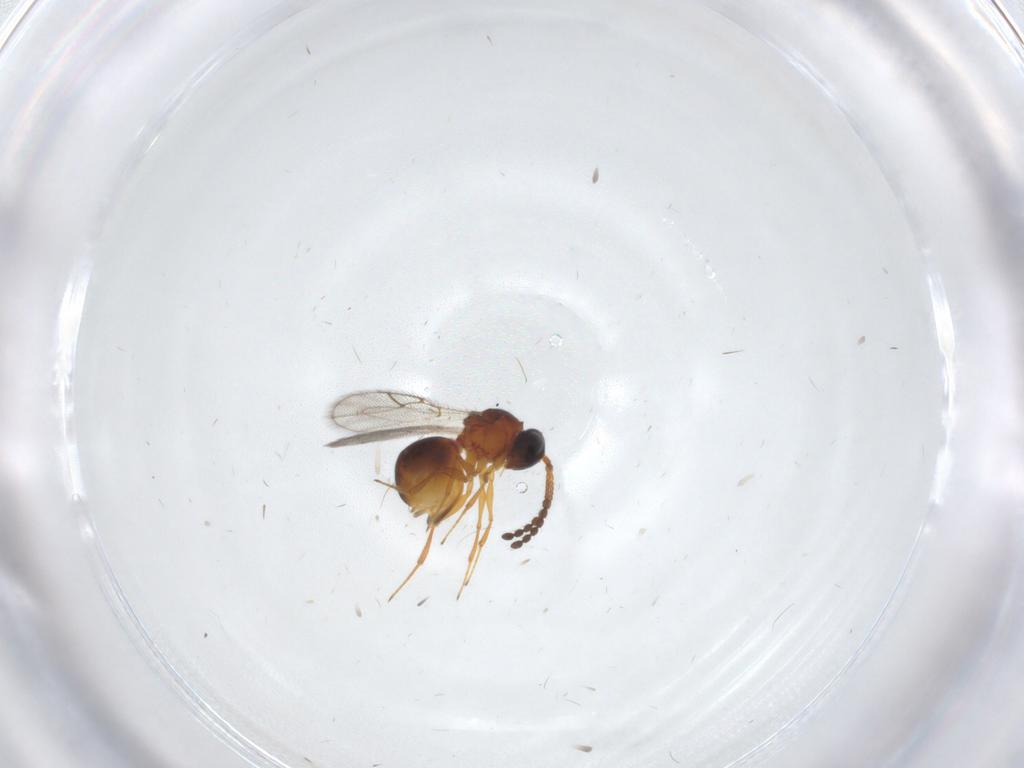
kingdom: Animalia
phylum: Arthropoda
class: Insecta
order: Hymenoptera
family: Figitidae
